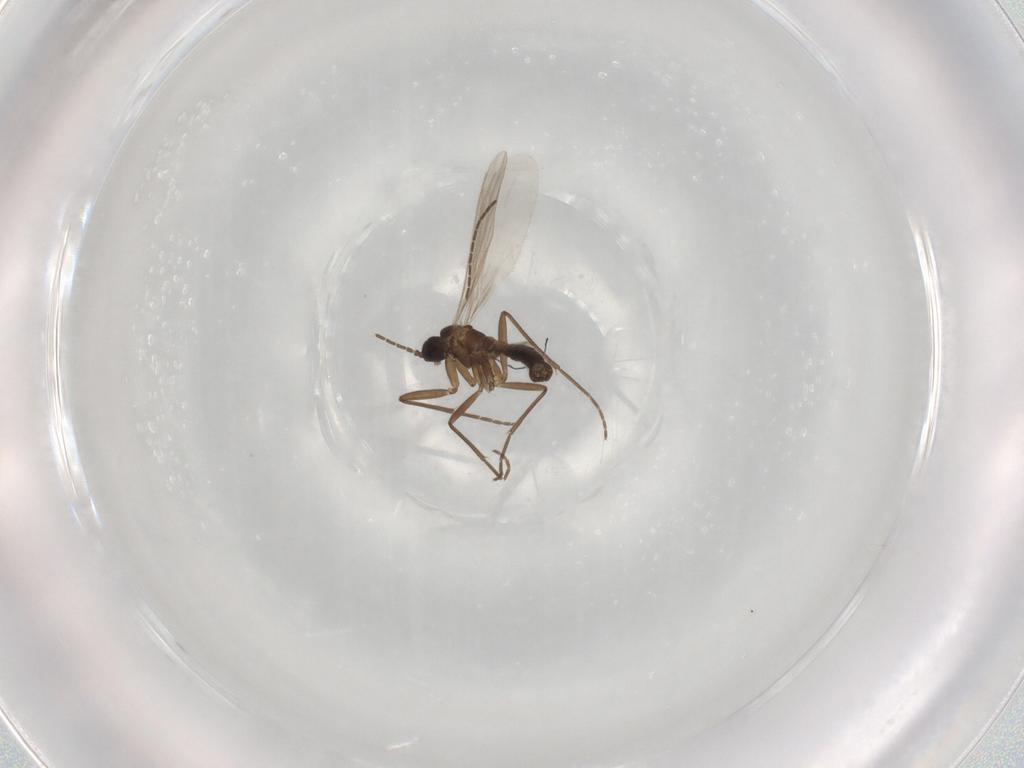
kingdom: Animalia
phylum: Arthropoda
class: Insecta
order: Diptera
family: Sciaridae
